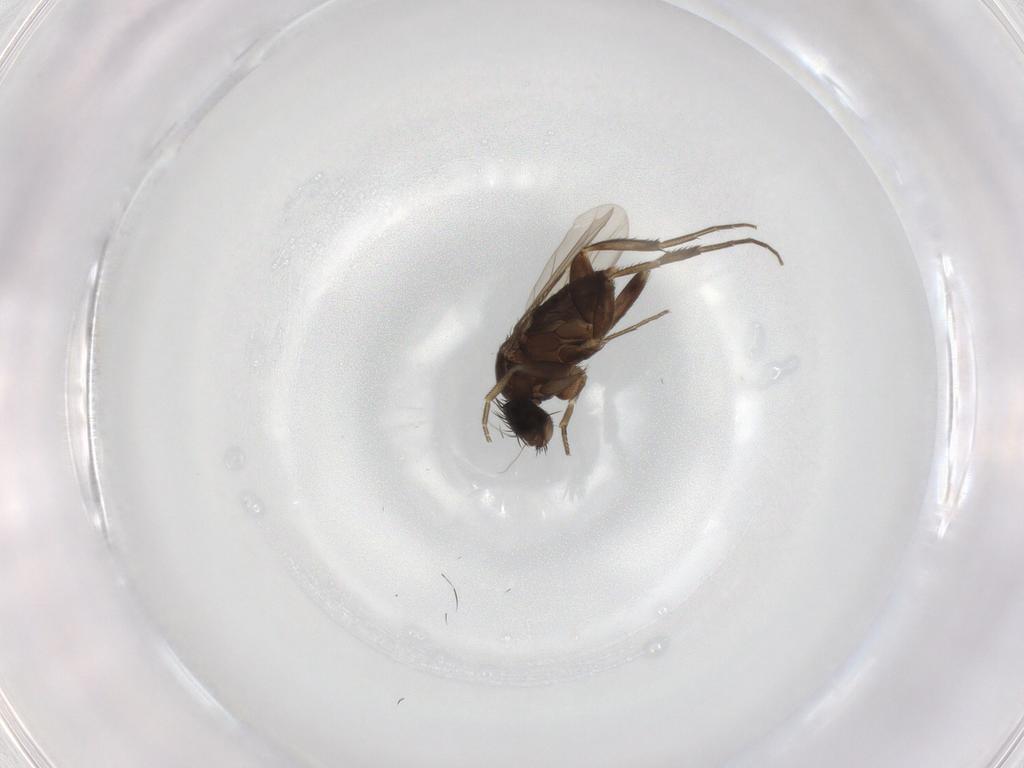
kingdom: Animalia
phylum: Arthropoda
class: Insecta
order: Diptera
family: Phoridae
